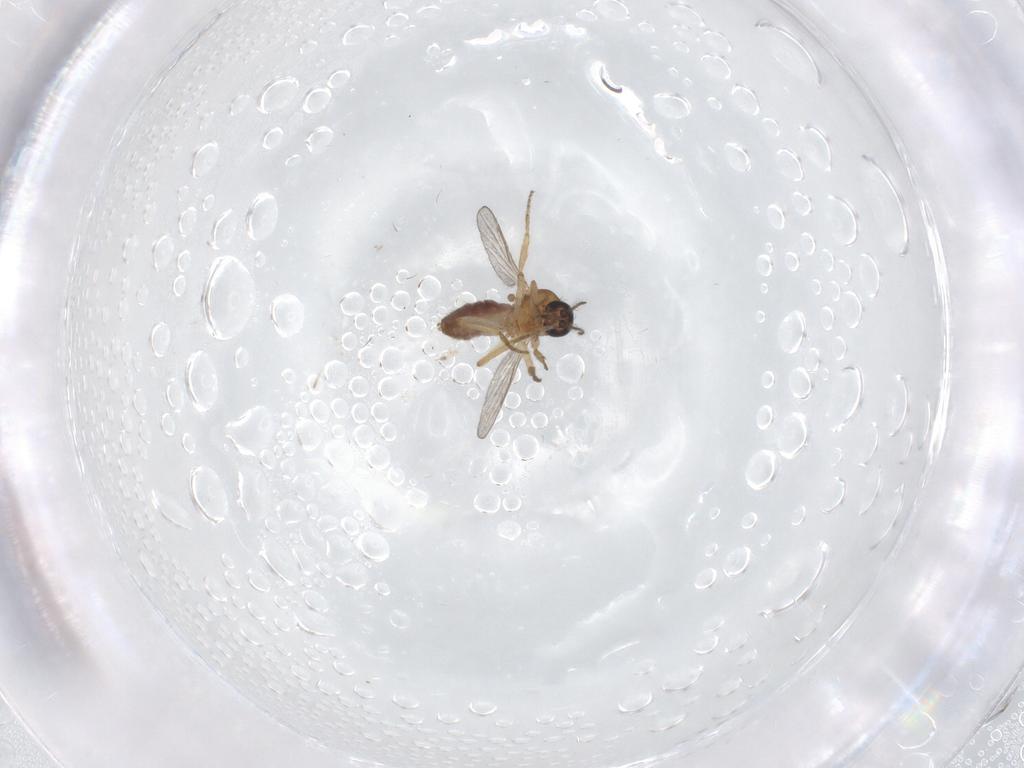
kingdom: Animalia
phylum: Arthropoda
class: Insecta
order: Diptera
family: Chironomidae
